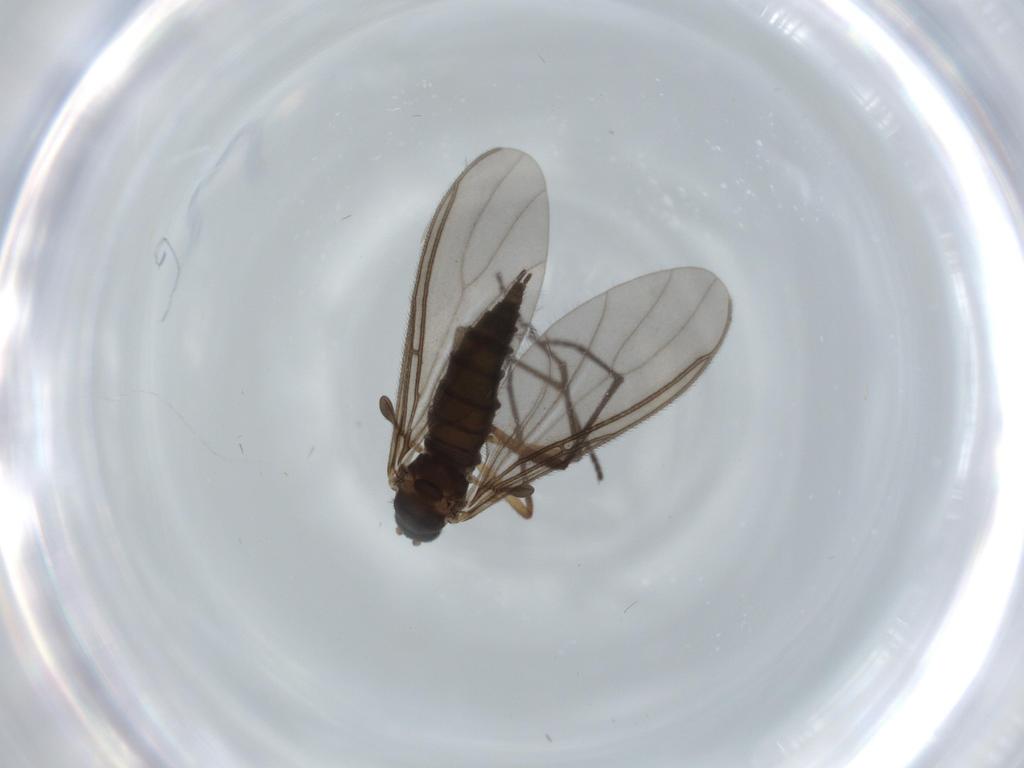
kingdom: Animalia
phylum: Arthropoda
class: Insecta
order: Diptera
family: Sciaridae
